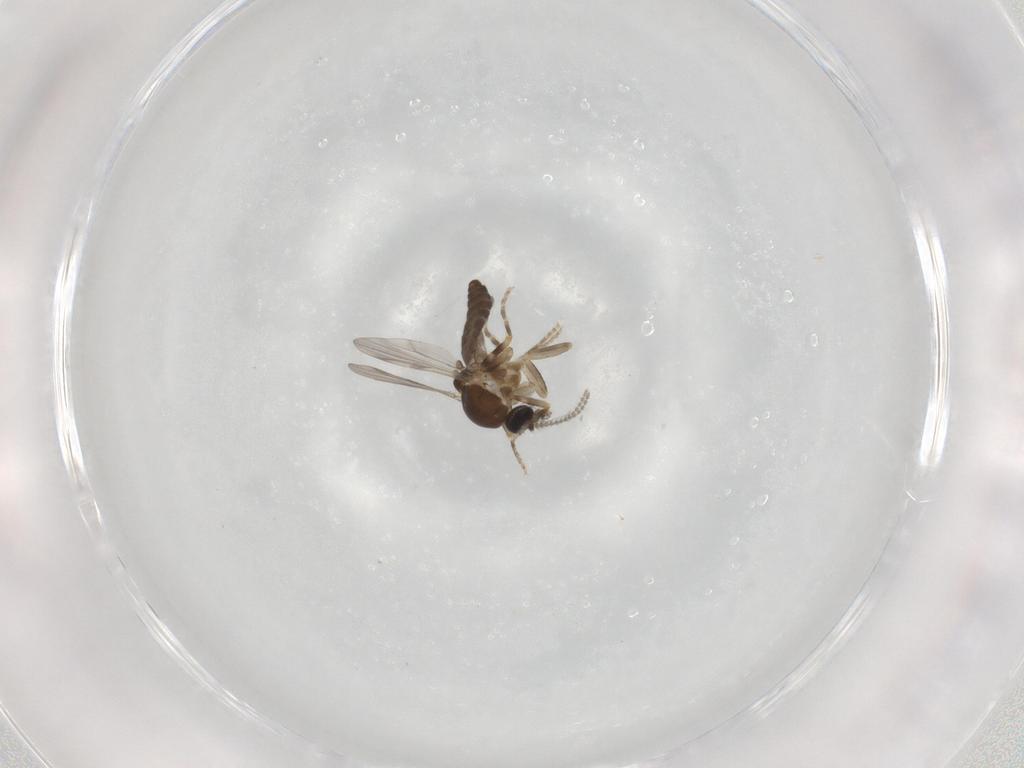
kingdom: Animalia
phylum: Arthropoda
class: Insecta
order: Diptera
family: Ceratopogonidae
